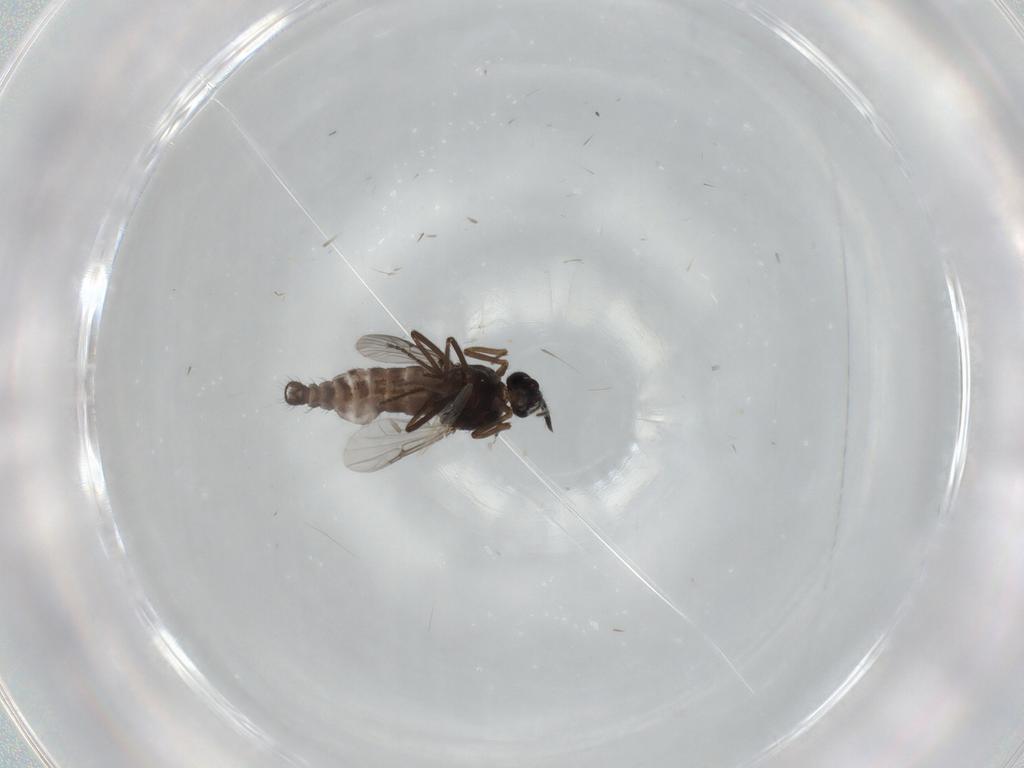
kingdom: Animalia
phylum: Arthropoda
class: Insecta
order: Diptera
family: Ceratopogonidae
